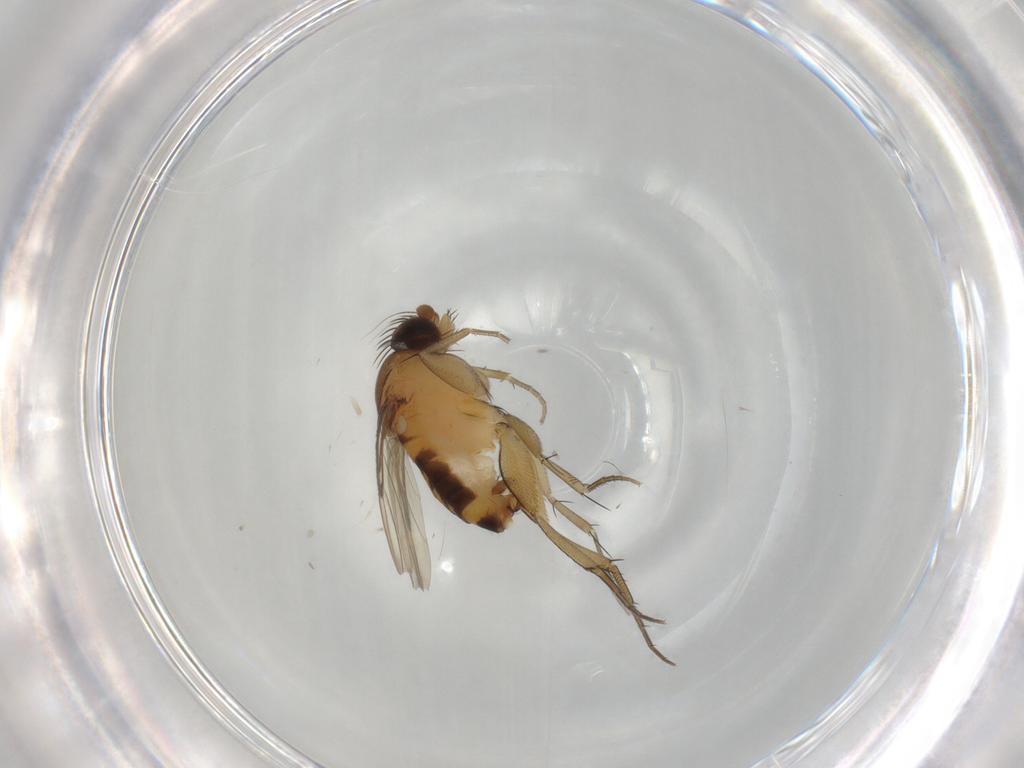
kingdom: Animalia
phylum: Arthropoda
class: Insecta
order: Diptera
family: Phoridae
